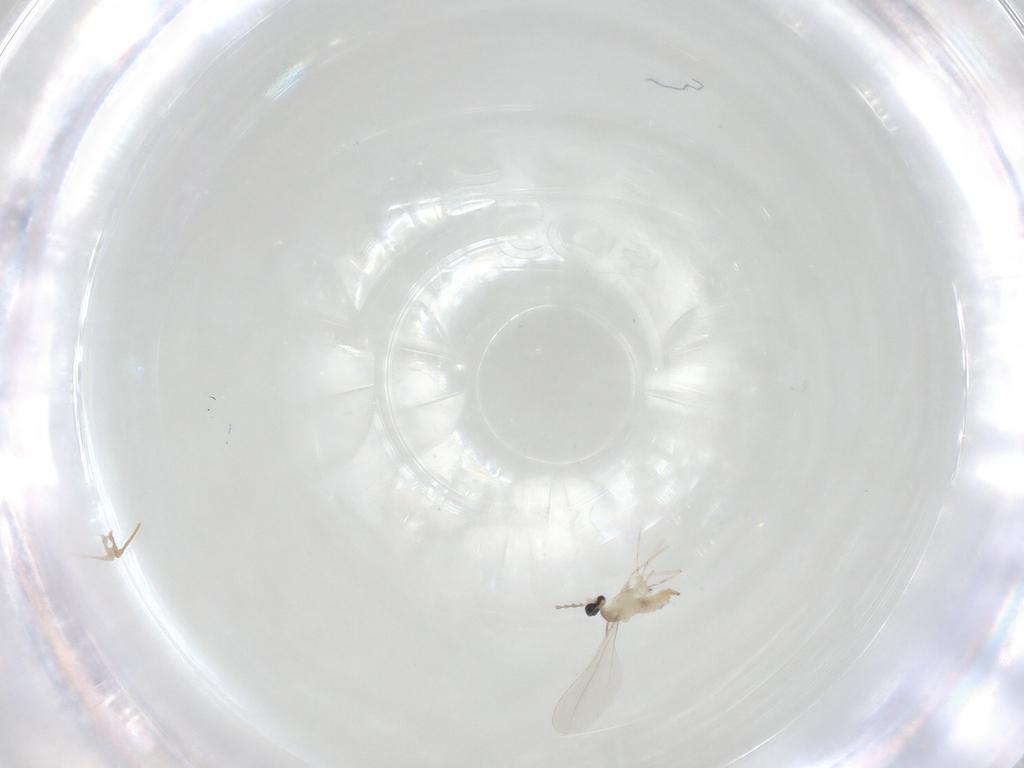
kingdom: Animalia
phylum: Arthropoda
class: Insecta
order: Diptera
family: Cecidomyiidae
